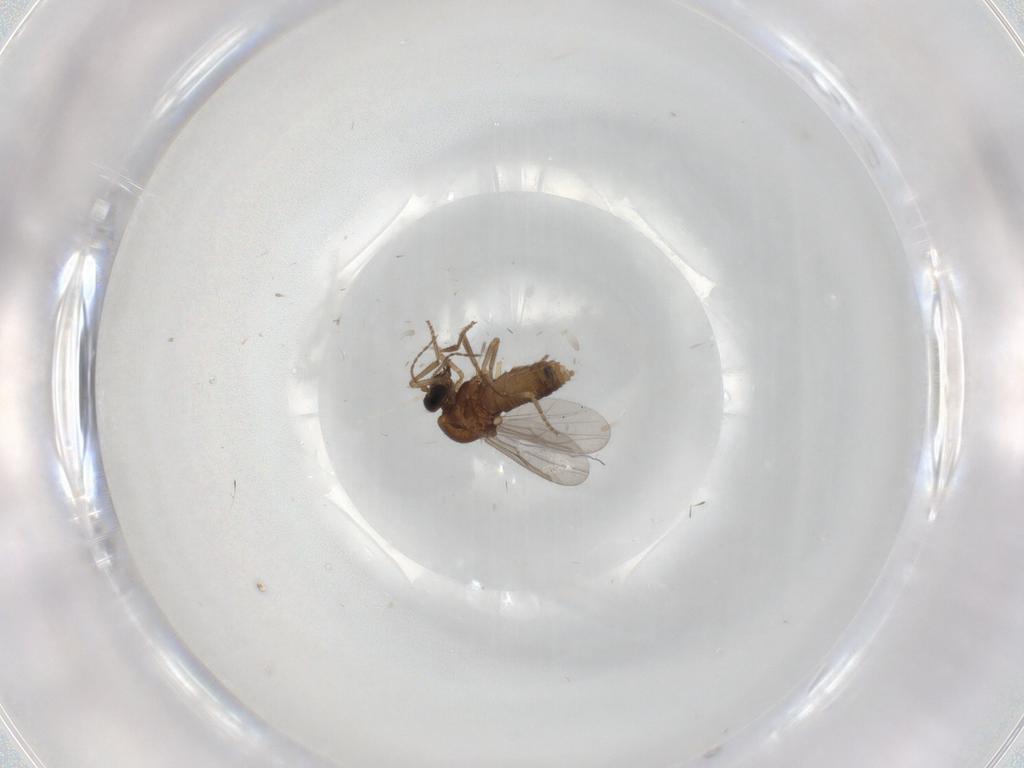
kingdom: Animalia
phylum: Arthropoda
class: Insecta
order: Diptera
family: Ceratopogonidae
